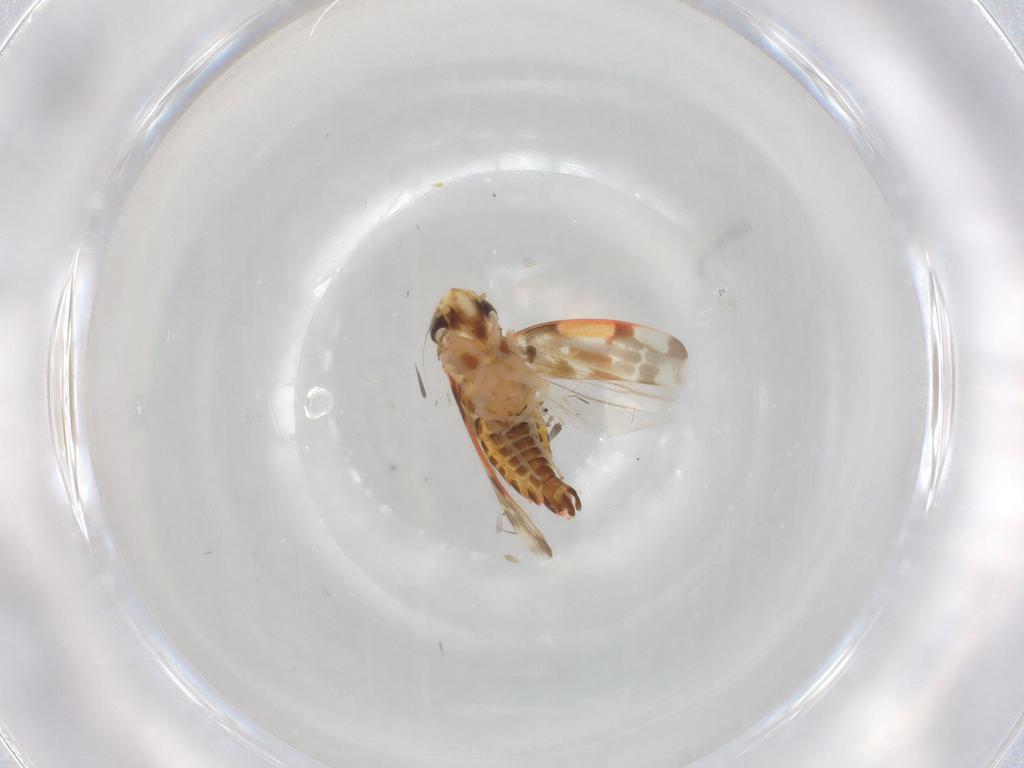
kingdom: Animalia
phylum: Arthropoda
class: Insecta
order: Hemiptera
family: Cicadellidae
